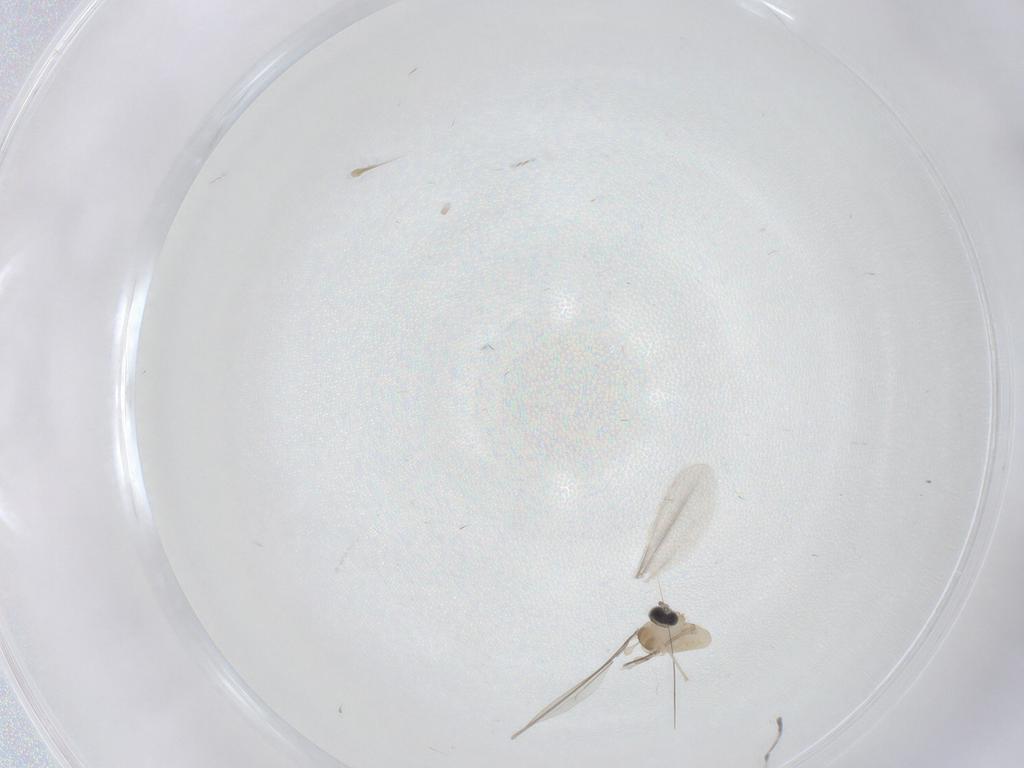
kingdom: Animalia
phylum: Arthropoda
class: Insecta
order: Diptera
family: Cecidomyiidae
